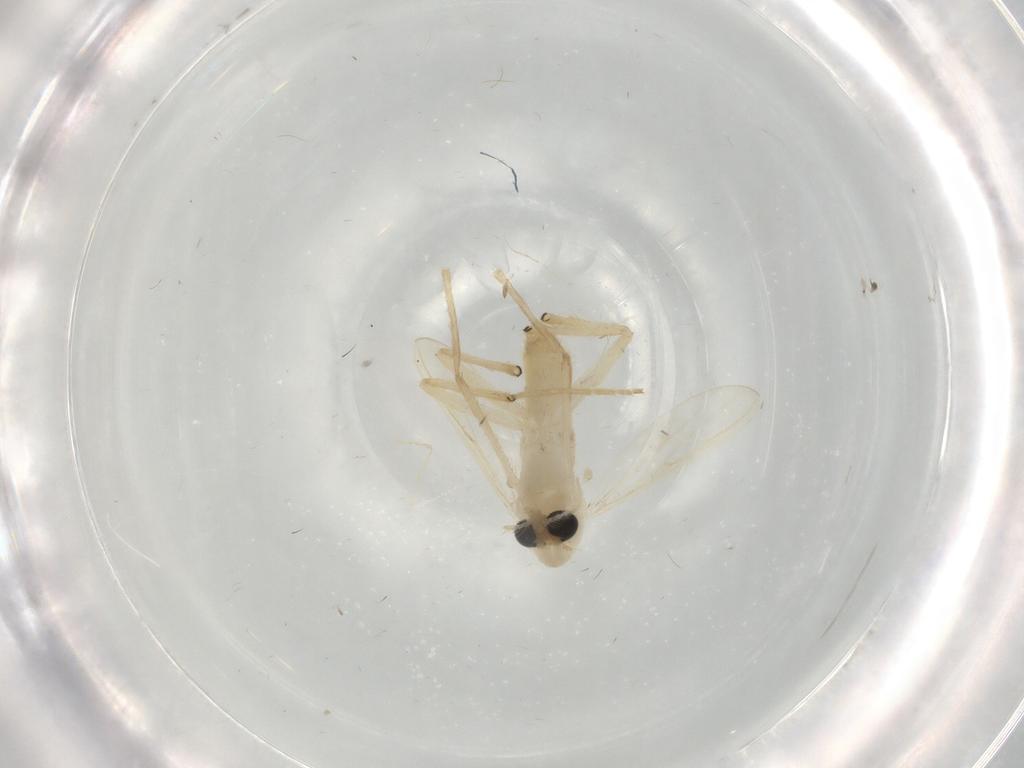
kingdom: Animalia
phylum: Arthropoda
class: Insecta
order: Diptera
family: Chironomidae
